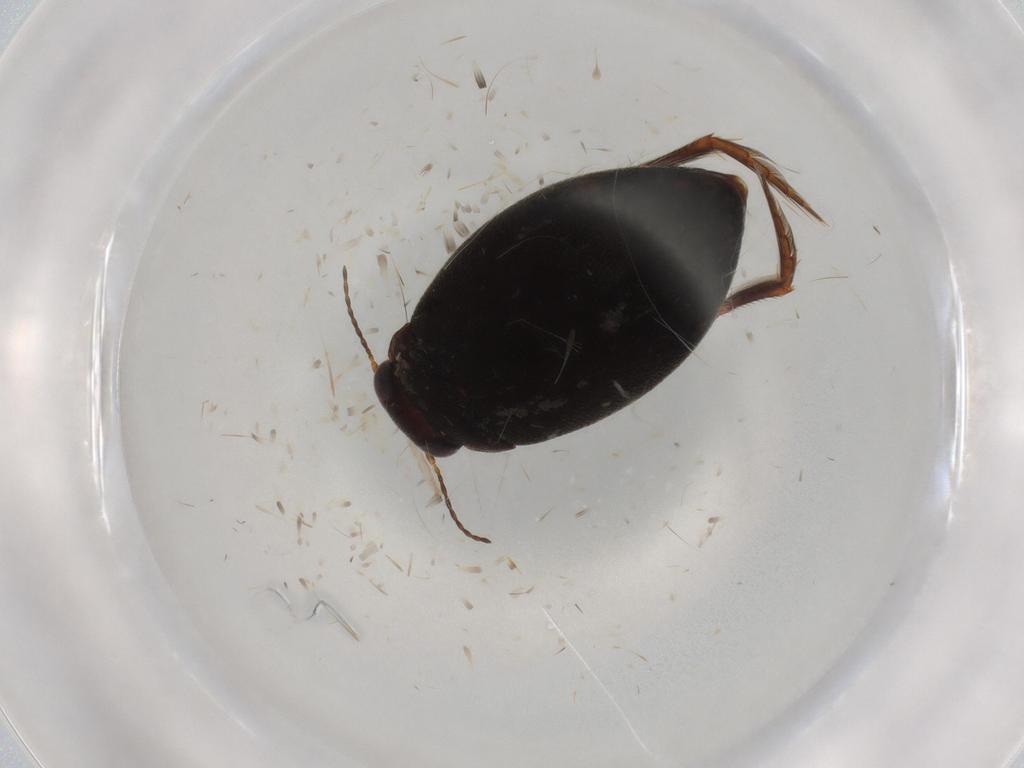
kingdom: Animalia
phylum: Arthropoda
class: Insecta
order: Coleoptera
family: Dytiscidae
